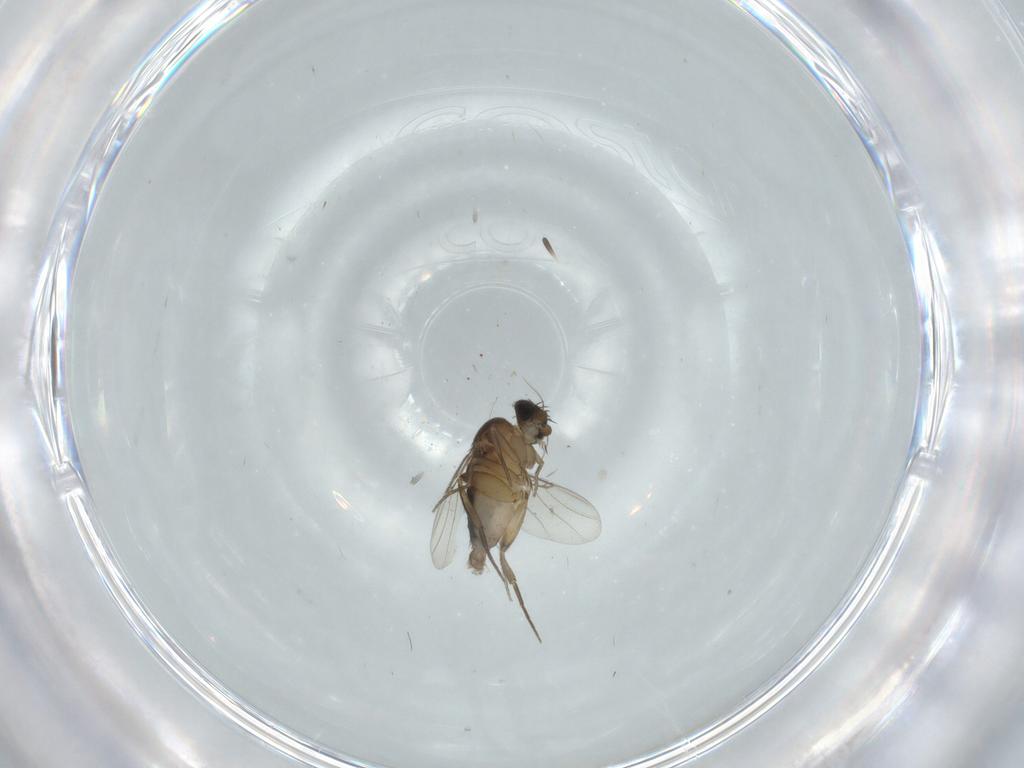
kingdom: Animalia
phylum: Arthropoda
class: Insecta
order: Diptera
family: Phoridae
